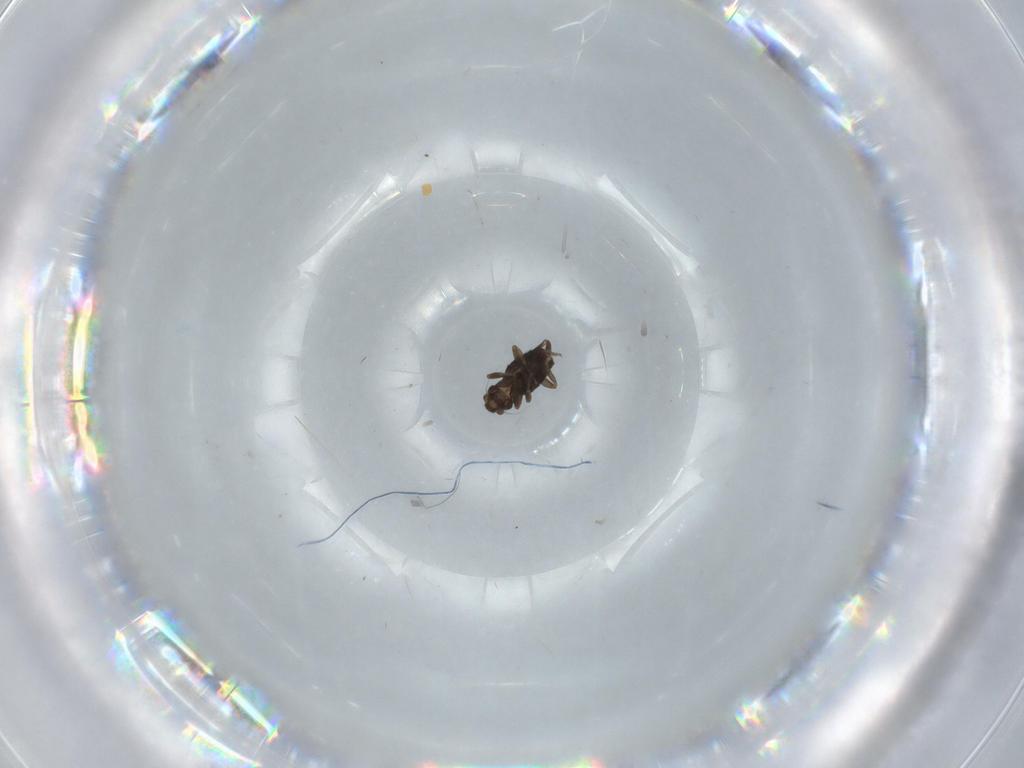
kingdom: Animalia
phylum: Arthropoda
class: Insecta
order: Diptera
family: Phoridae
